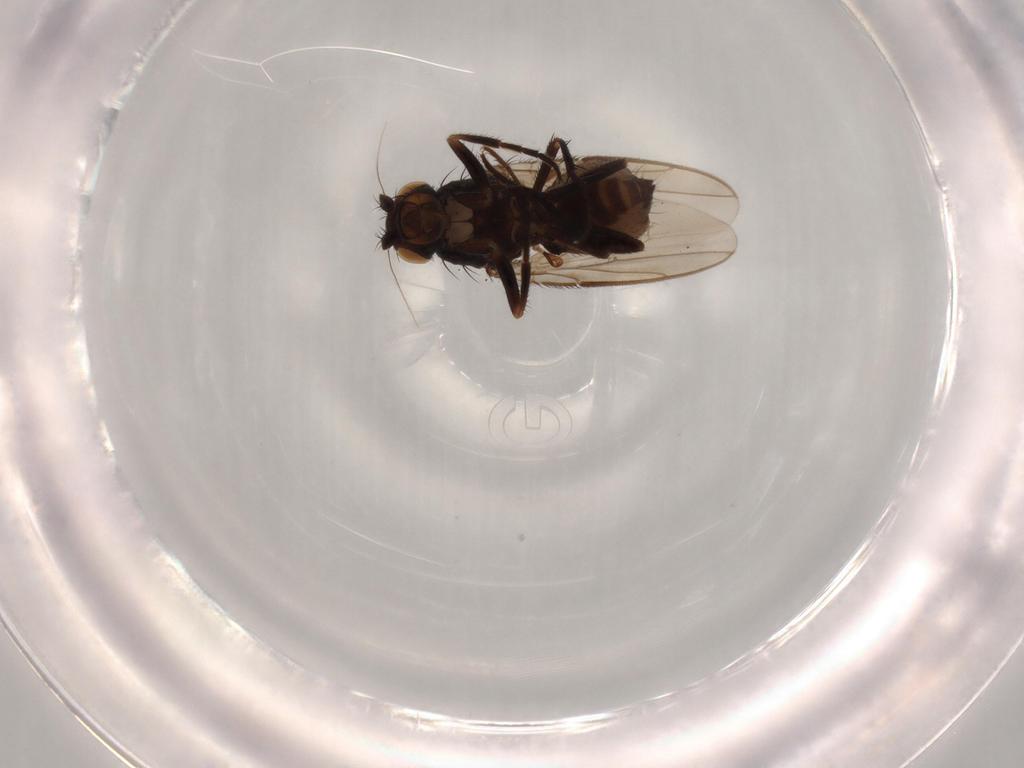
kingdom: Animalia
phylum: Arthropoda
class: Insecta
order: Diptera
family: Sphaeroceridae
